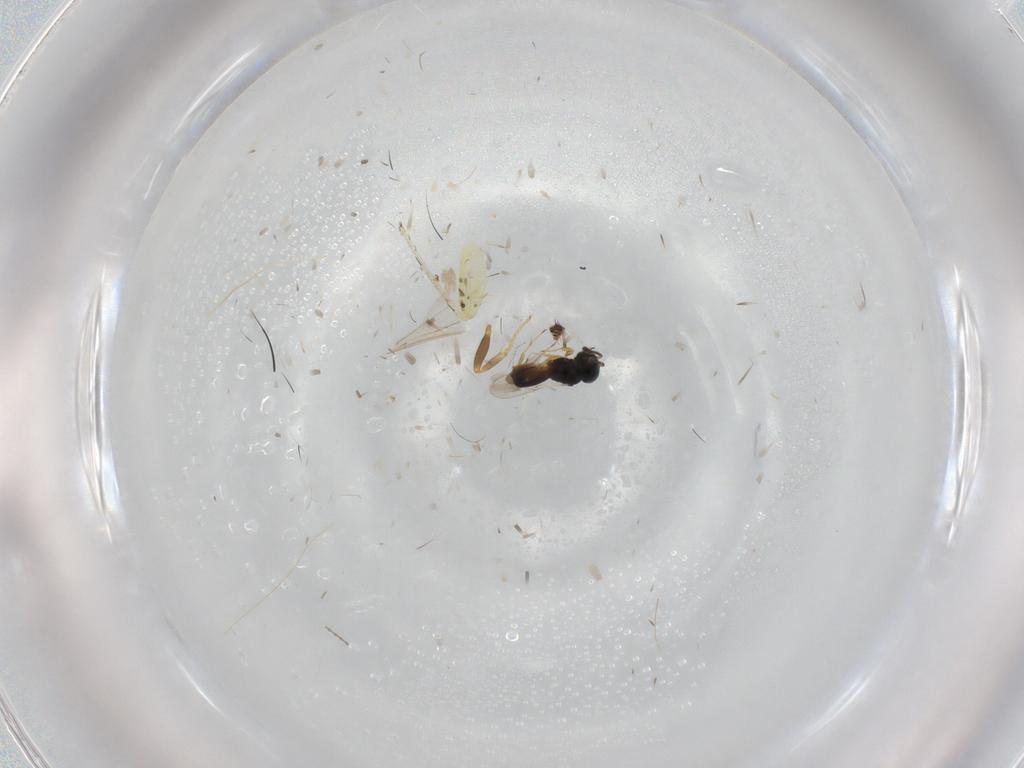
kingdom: Animalia
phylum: Arthropoda
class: Insecta
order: Hymenoptera
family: Scelionidae
